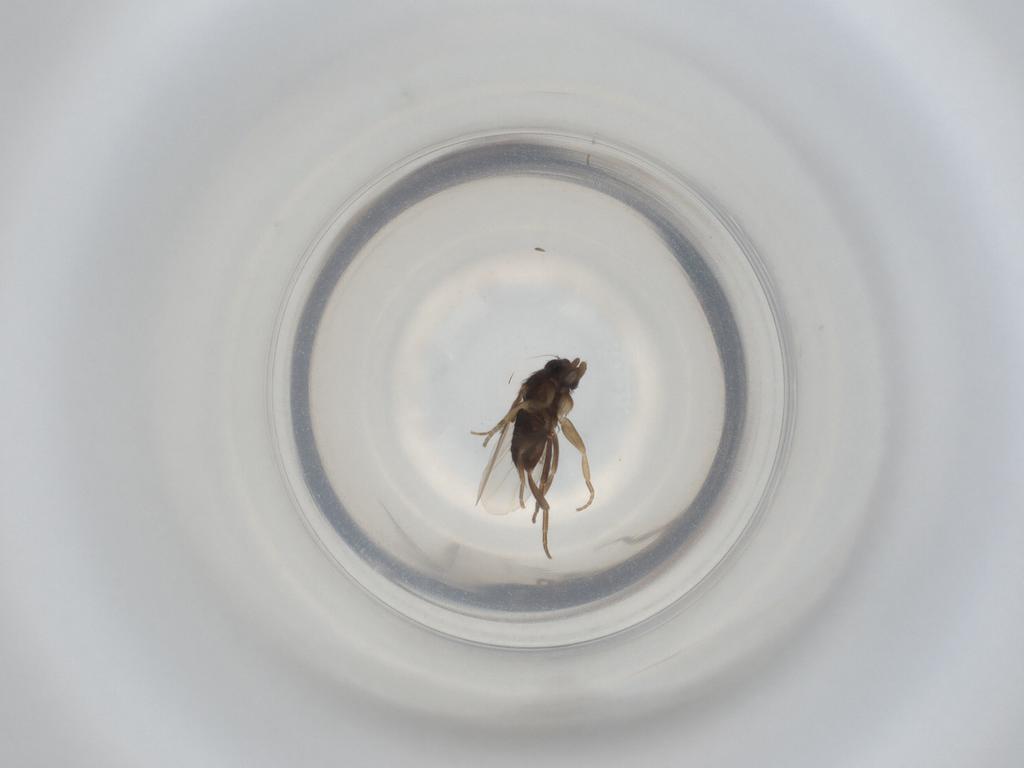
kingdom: Animalia
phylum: Arthropoda
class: Insecta
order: Diptera
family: Phoridae
